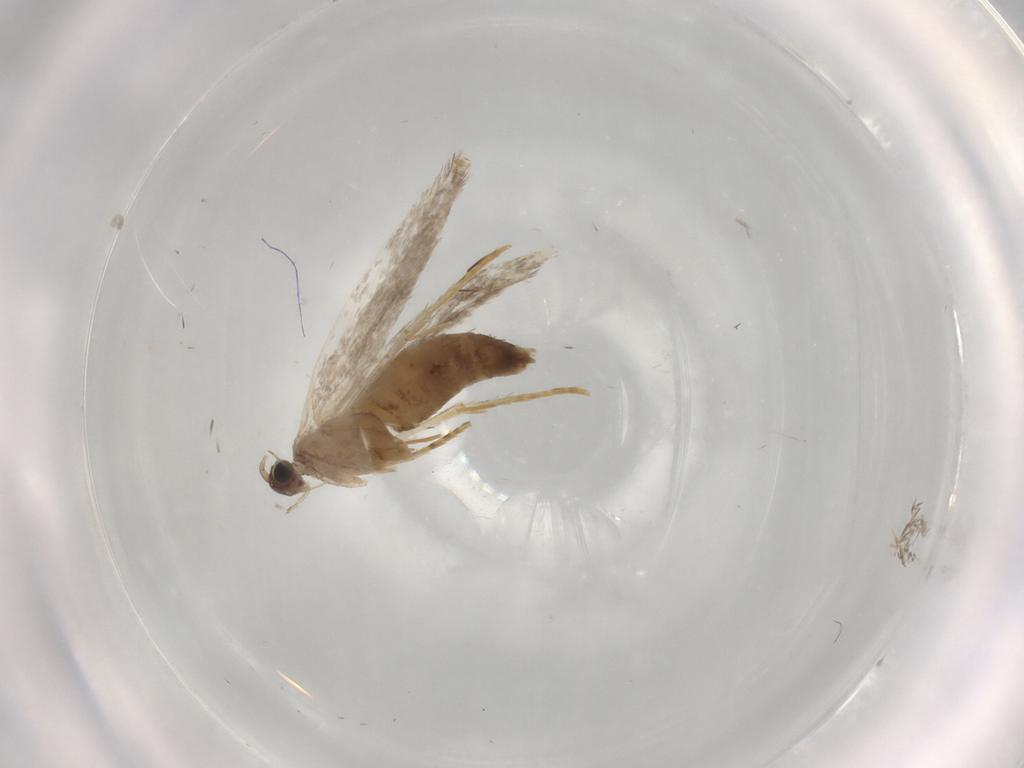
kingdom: Animalia
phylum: Arthropoda
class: Insecta
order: Lepidoptera
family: Tineidae
